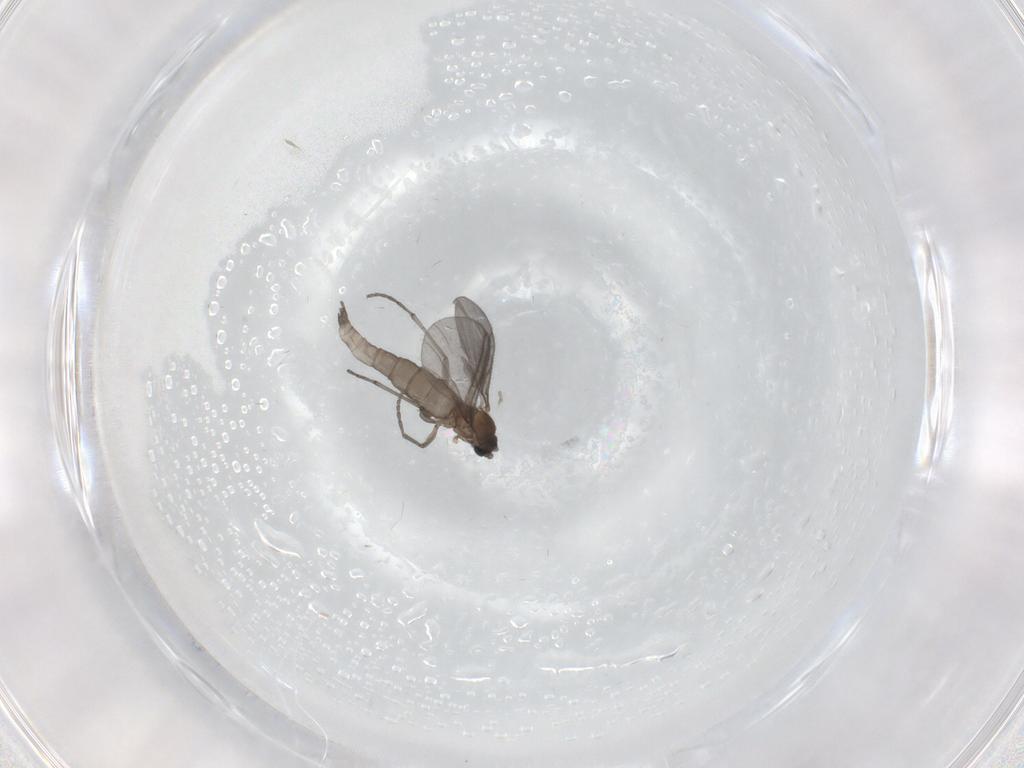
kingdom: Animalia
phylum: Arthropoda
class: Insecta
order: Diptera
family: Sciaridae
